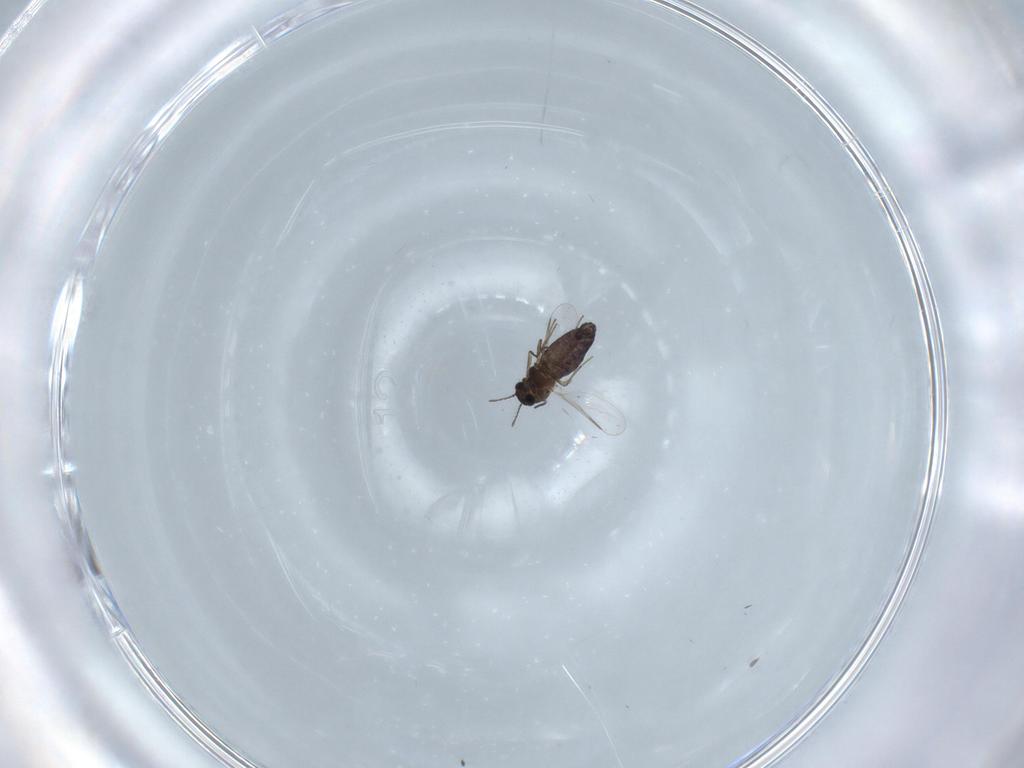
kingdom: Animalia
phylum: Arthropoda
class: Insecta
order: Diptera
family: Chironomidae
